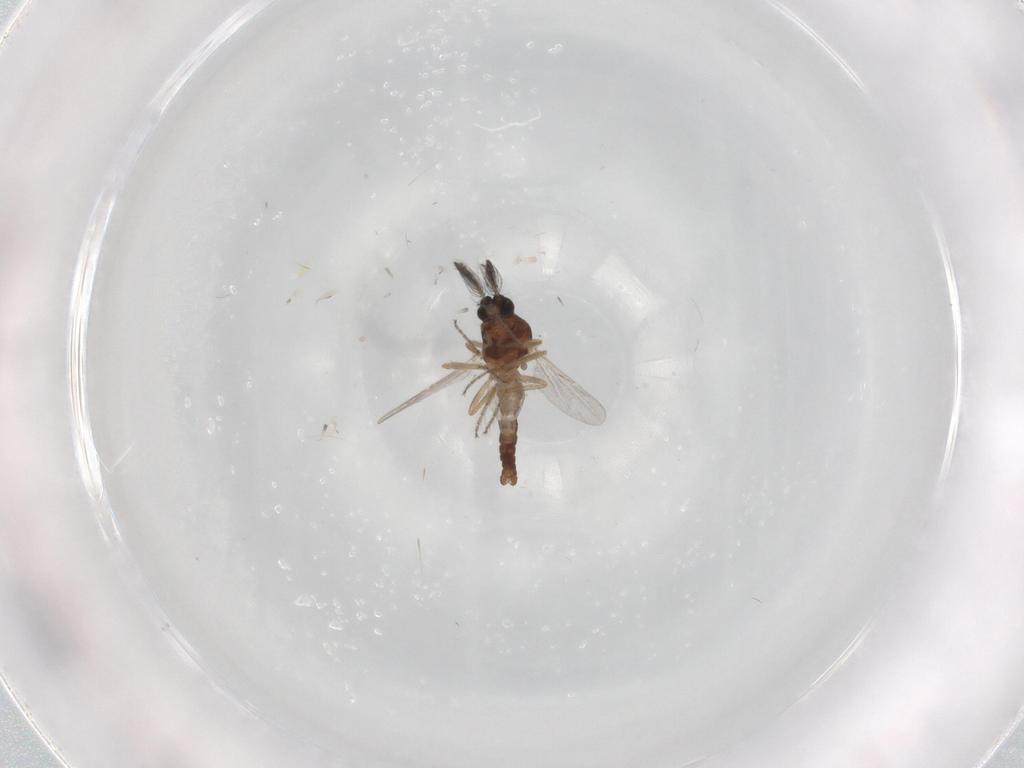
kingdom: Animalia
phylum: Arthropoda
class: Insecta
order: Diptera
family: Ceratopogonidae
